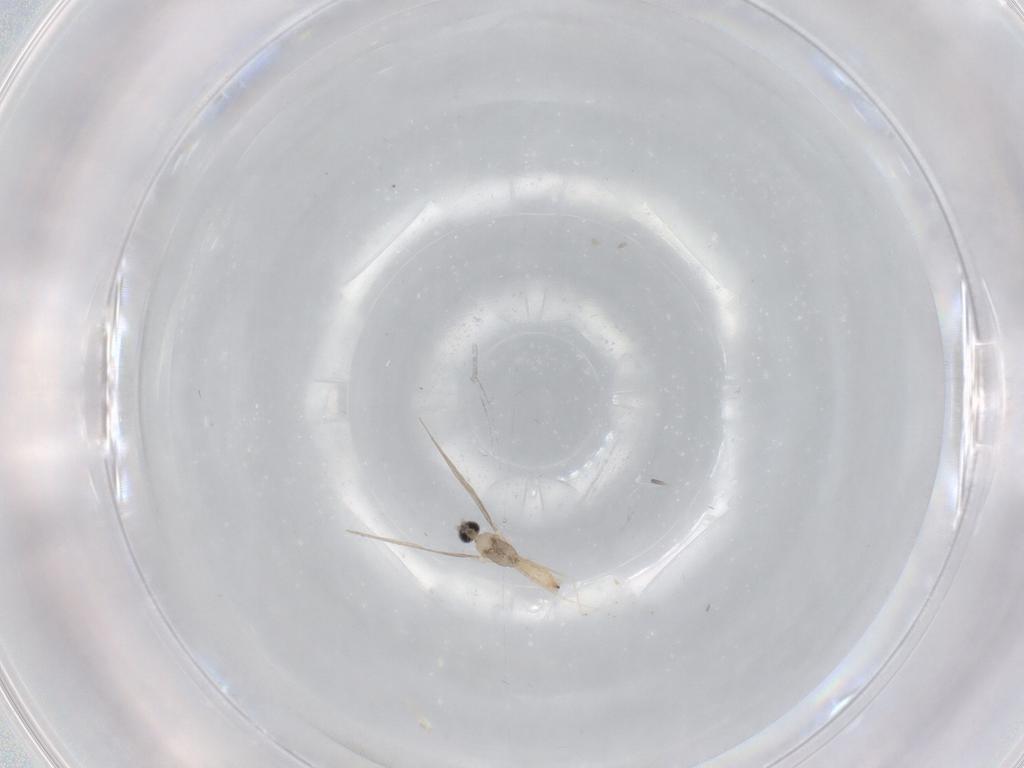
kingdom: Animalia
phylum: Arthropoda
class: Insecta
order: Diptera
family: Cecidomyiidae
